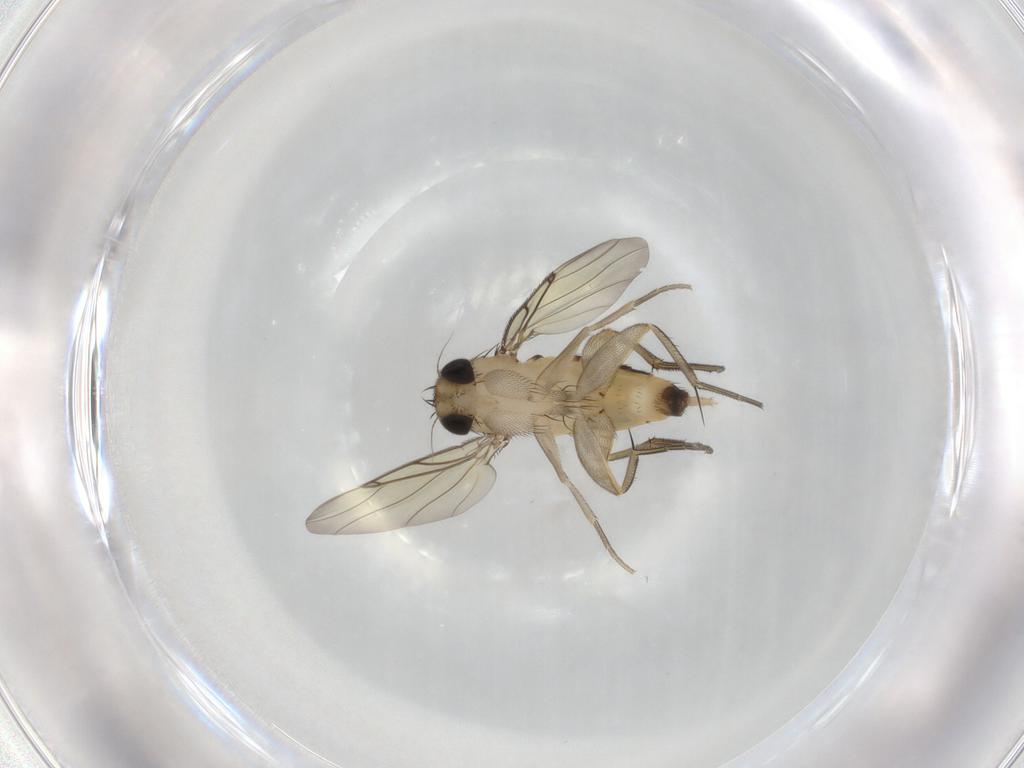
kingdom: Animalia
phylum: Arthropoda
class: Insecta
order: Diptera
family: Phoridae
